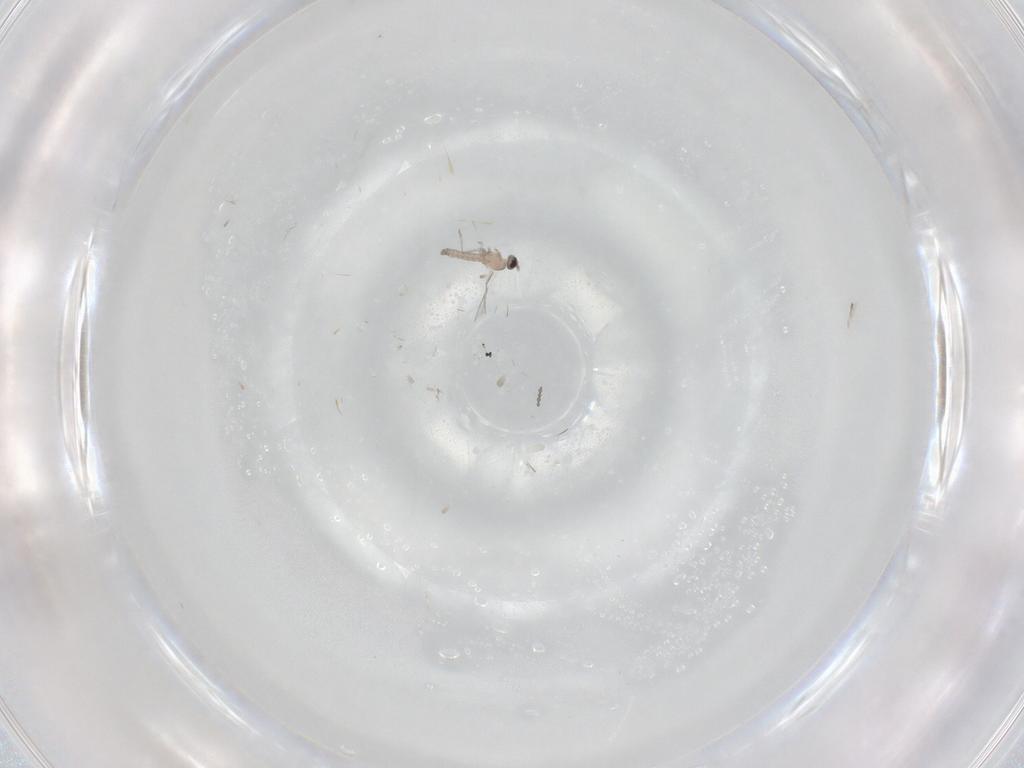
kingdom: Animalia
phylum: Arthropoda
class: Insecta
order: Diptera
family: Cecidomyiidae
